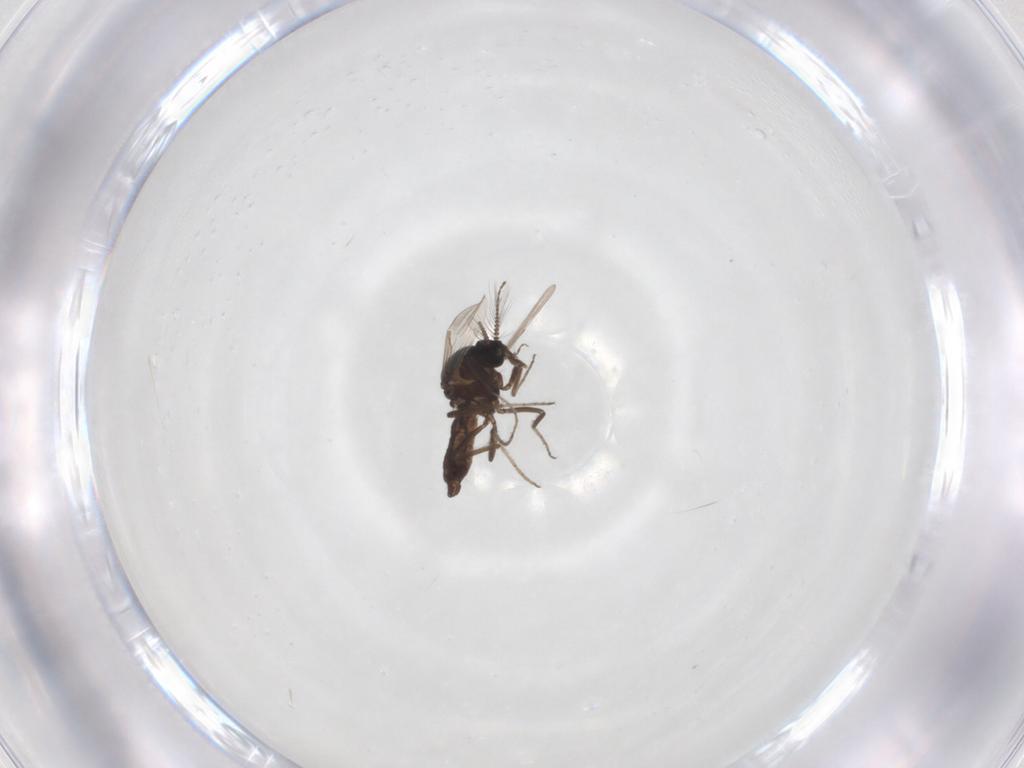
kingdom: Animalia
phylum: Arthropoda
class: Insecta
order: Diptera
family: Ceratopogonidae
